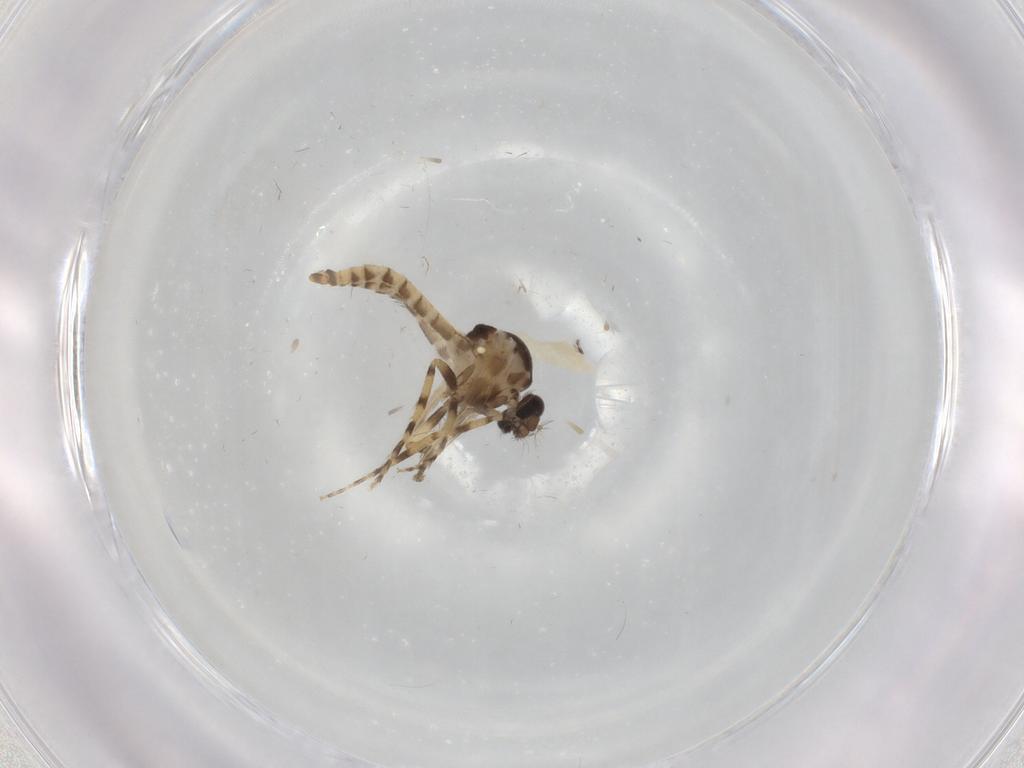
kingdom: Animalia
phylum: Arthropoda
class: Insecta
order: Diptera
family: Ceratopogonidae
